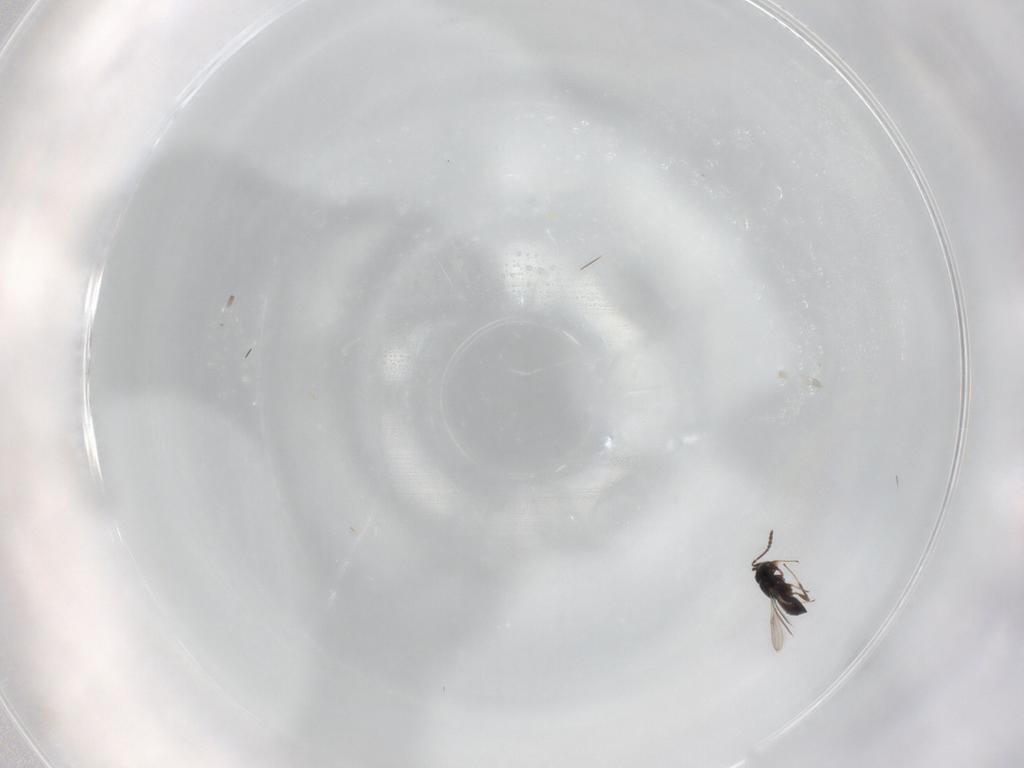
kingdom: Animalia
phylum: Arthropoda
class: Insecta
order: Hymenoptera
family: Scelionidae
